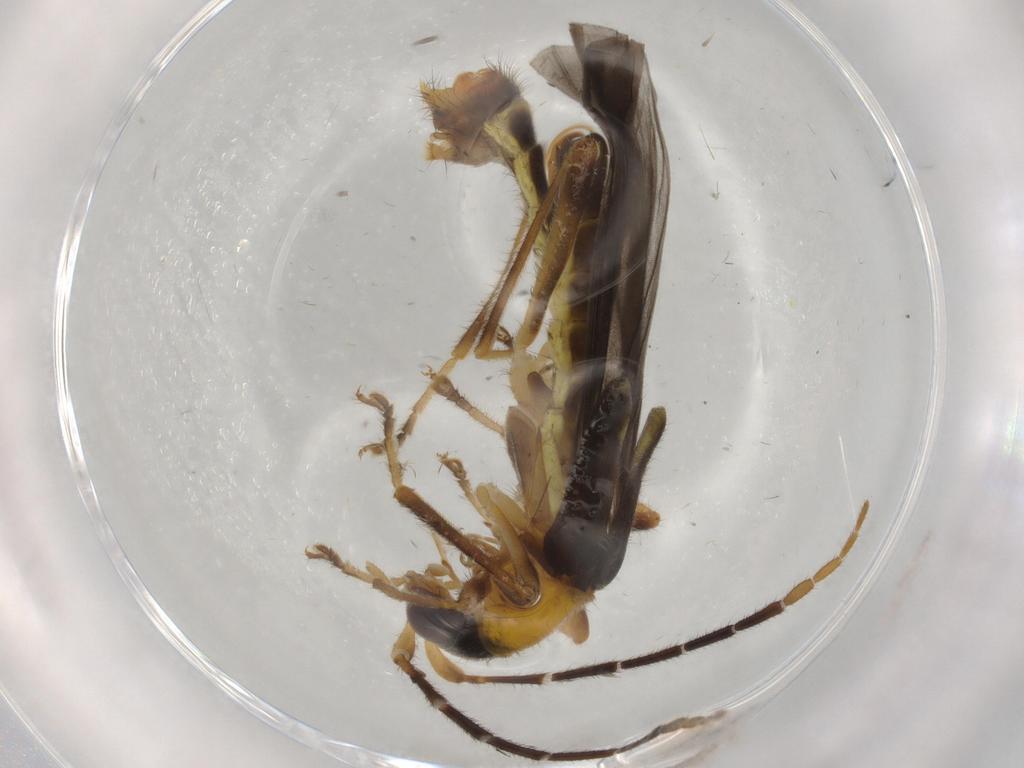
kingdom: Animalia
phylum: Arthropoda
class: Insecta
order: Coleoptera
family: Cantharidae
